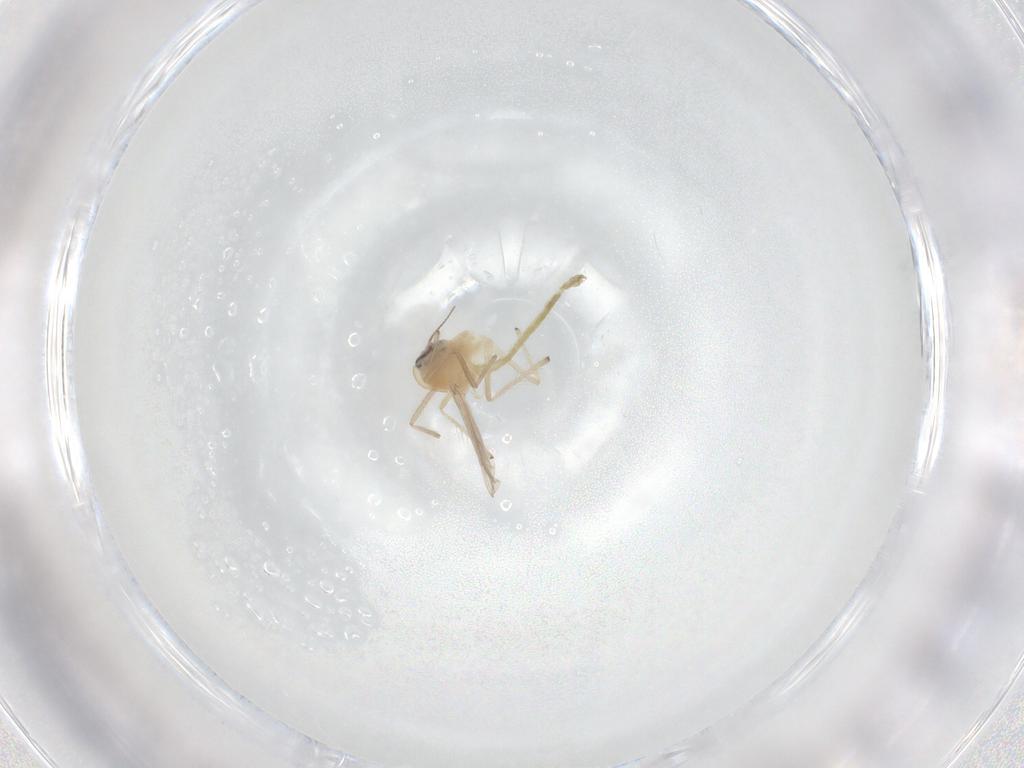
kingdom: Animalia
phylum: Arthropoda
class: Insecta
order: Diptera
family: Chironomidae
